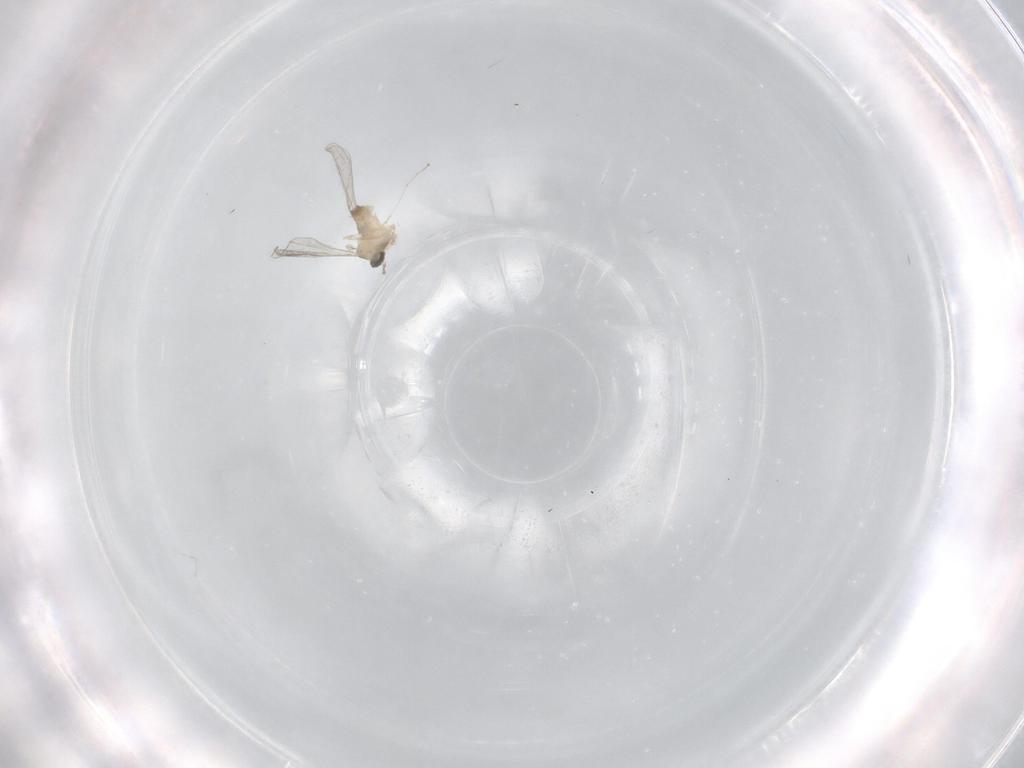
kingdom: Animalia
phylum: Arthropoda
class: Insecta
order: Diptera
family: Cecidomyiidae
